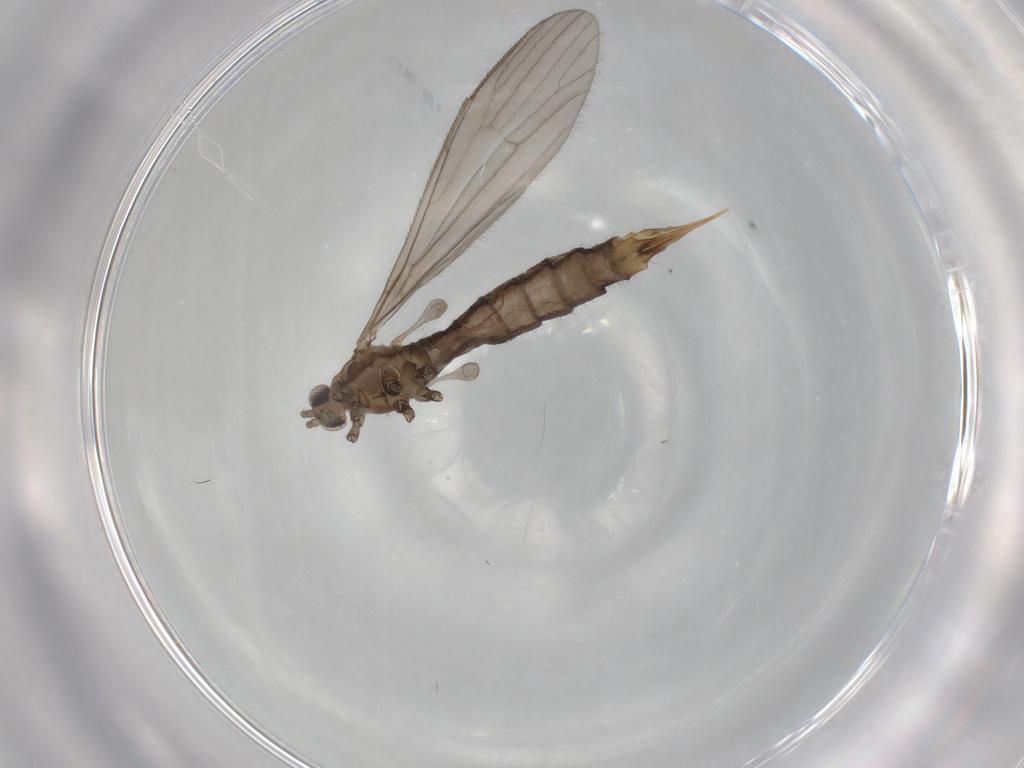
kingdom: Animalia
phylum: Arthropoda
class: Insecta
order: Diptera
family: Limoniidae
